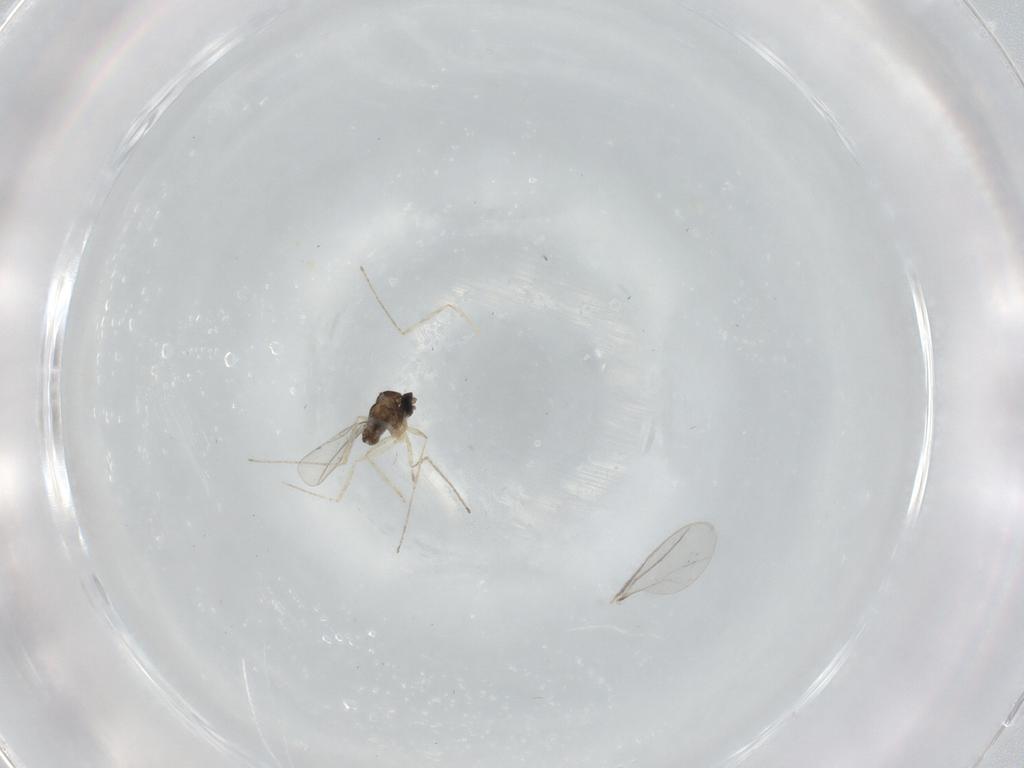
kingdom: Animalia
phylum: Arthropoda
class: Insecta
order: Diptera
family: Cecidomyiidae
